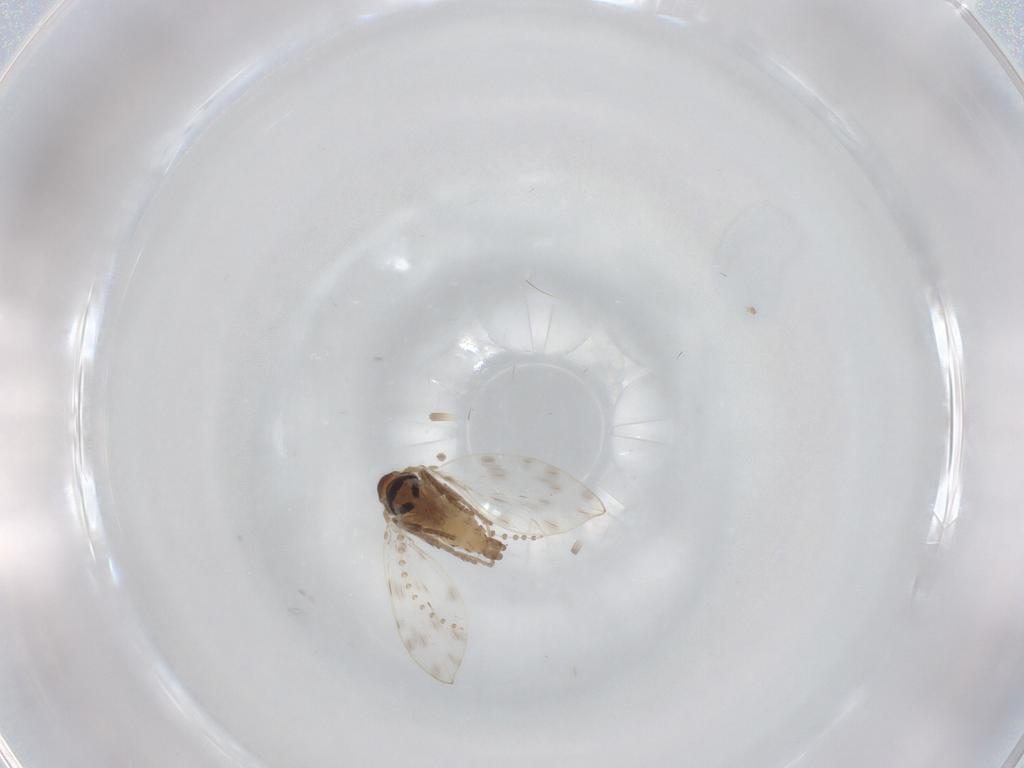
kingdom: Animalia
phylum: Arthropoda
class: Insecta
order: Diptera
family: Psychodidae
